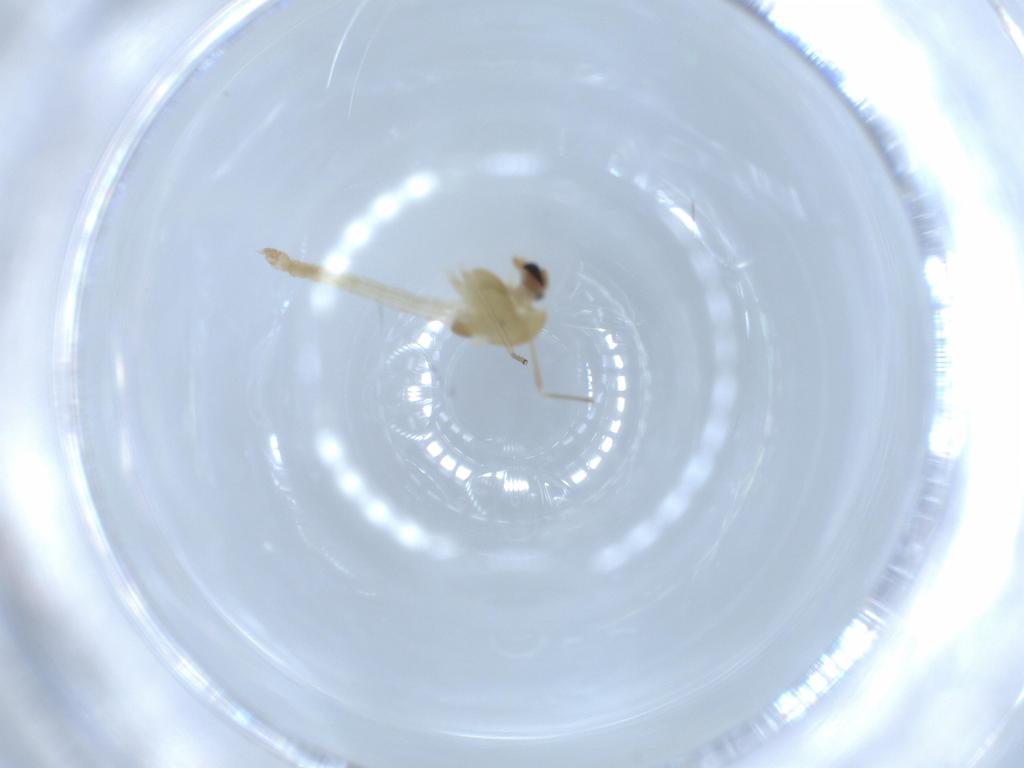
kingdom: Animalia
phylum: Arthropoda
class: Insecta
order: Diptera
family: Chironomidae
